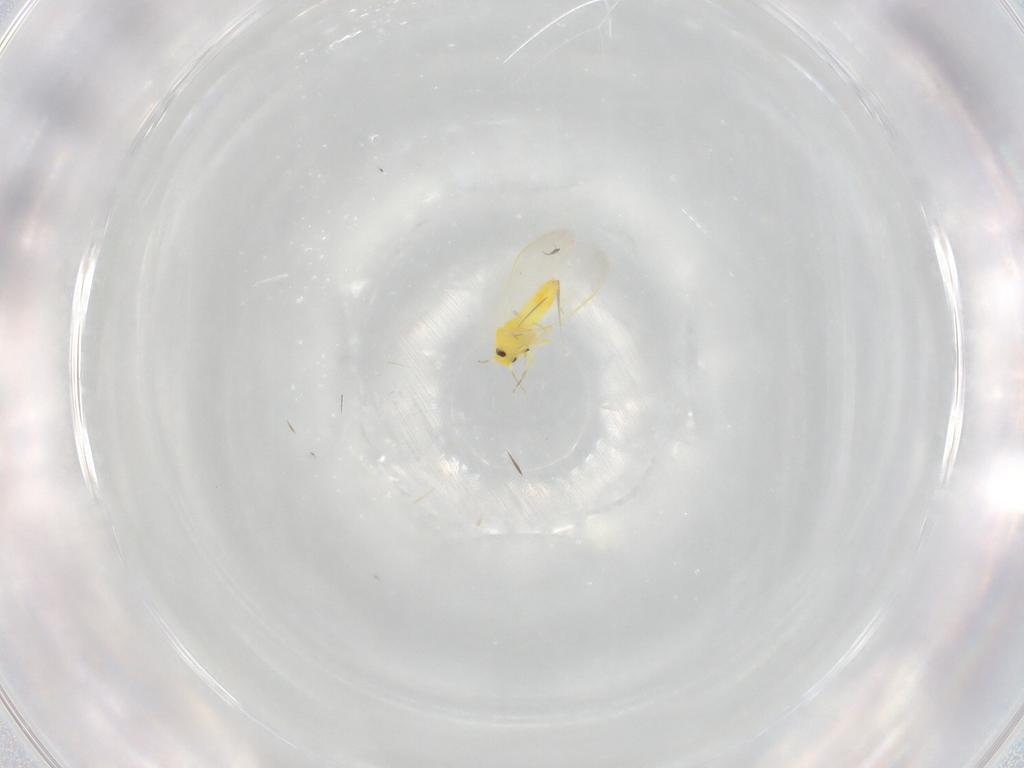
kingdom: Animalia
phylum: Arthropoda
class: Insecta
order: Hemiptera
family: Aleyrodidae
